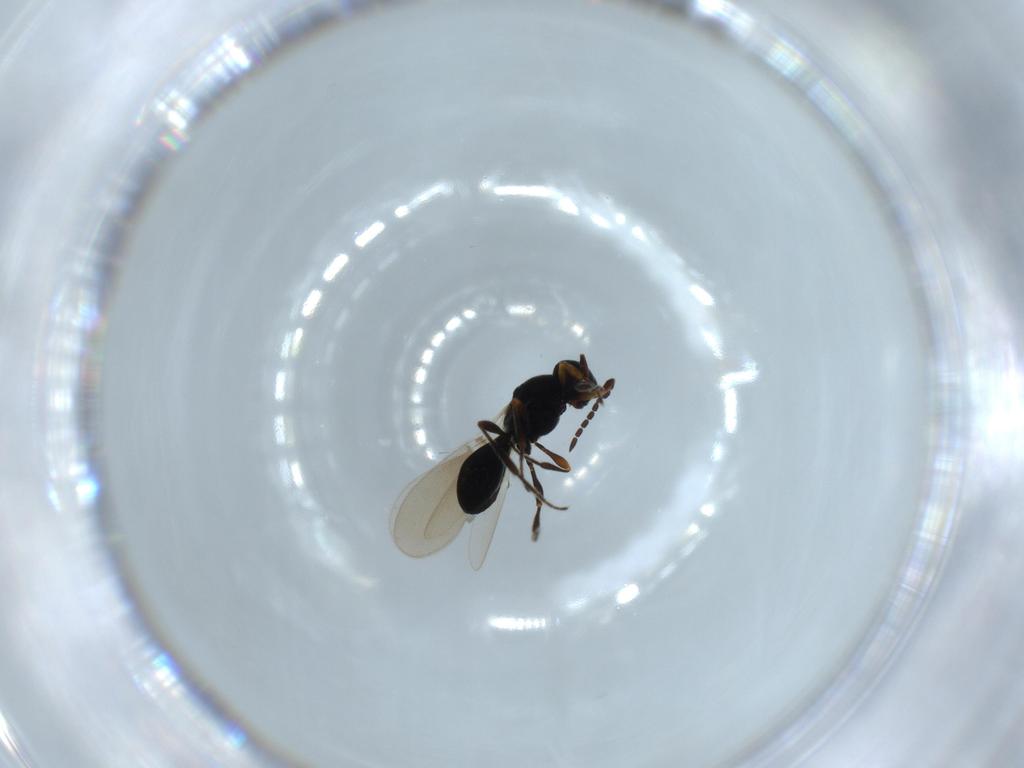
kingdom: Animalia
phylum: Arthropoda
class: Insecta
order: Hymenoptera
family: Platygastridae
